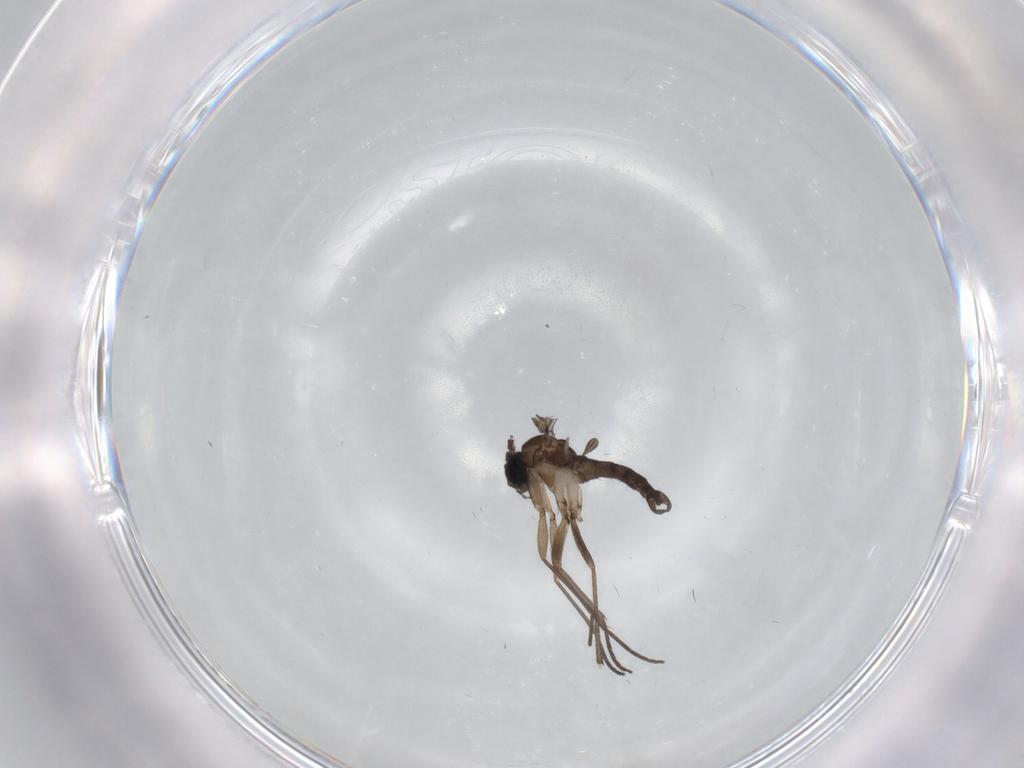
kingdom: Animalia
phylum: Arthropoda
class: Insecta
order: Diptera
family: Sciaridae
